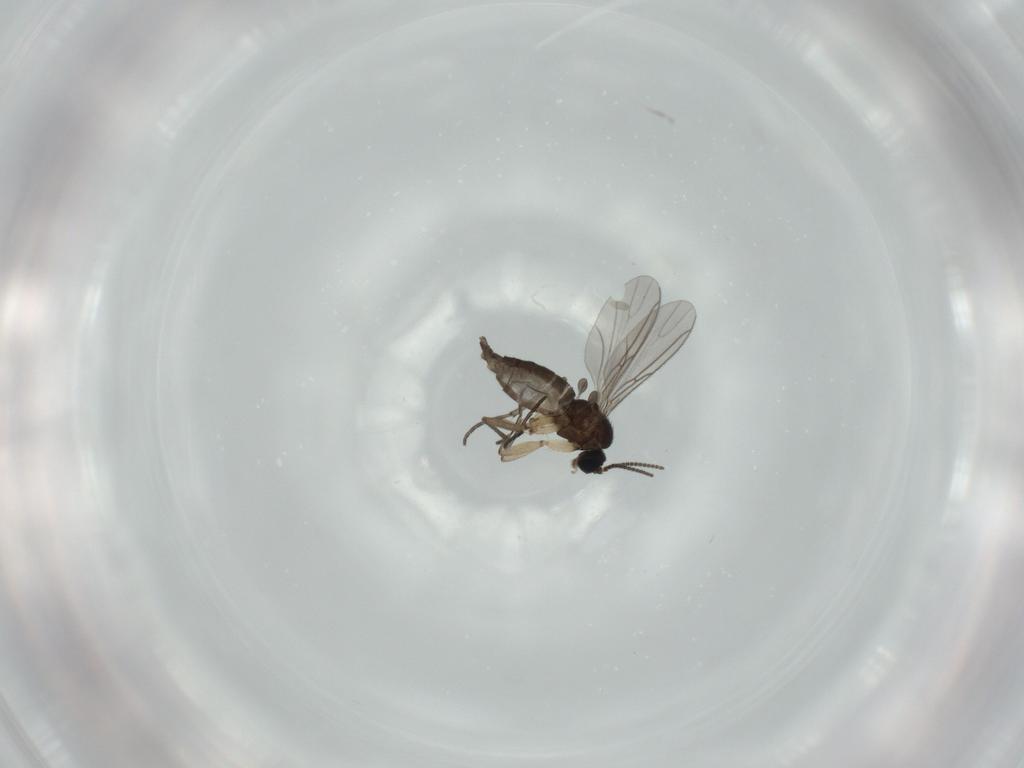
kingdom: Animalia
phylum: Arthropoda
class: Insecta
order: Diptera
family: Sciaridae
